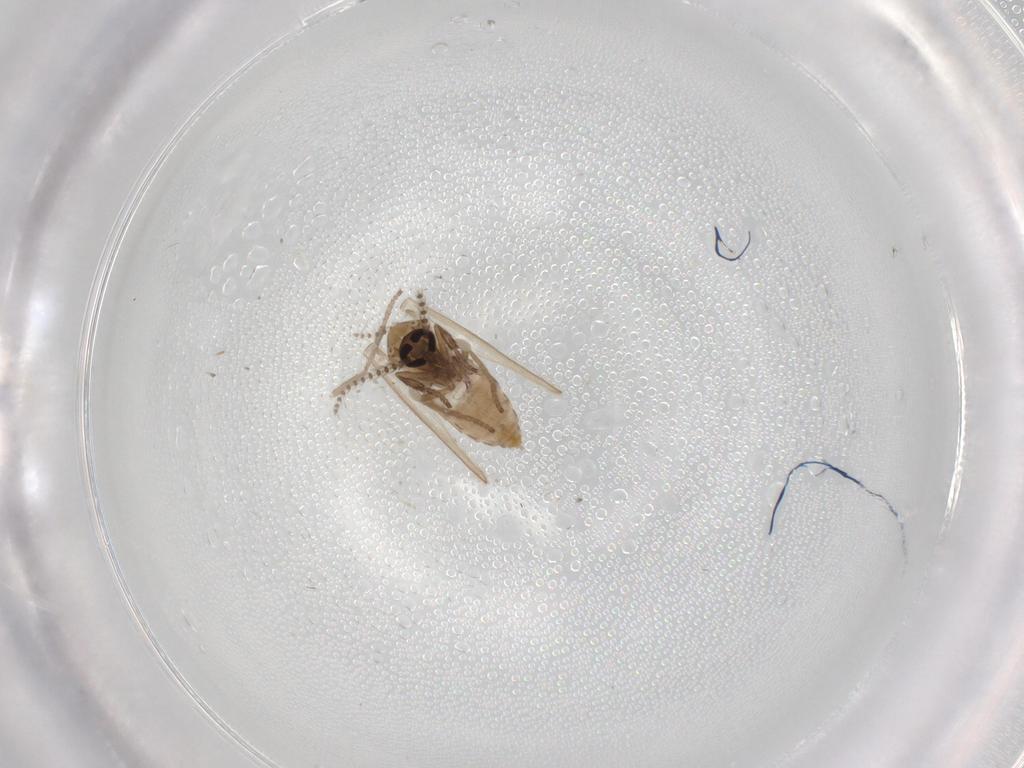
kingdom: Animalia
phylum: Arthropoda
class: Insecta
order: Diptera
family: Psychodidae
